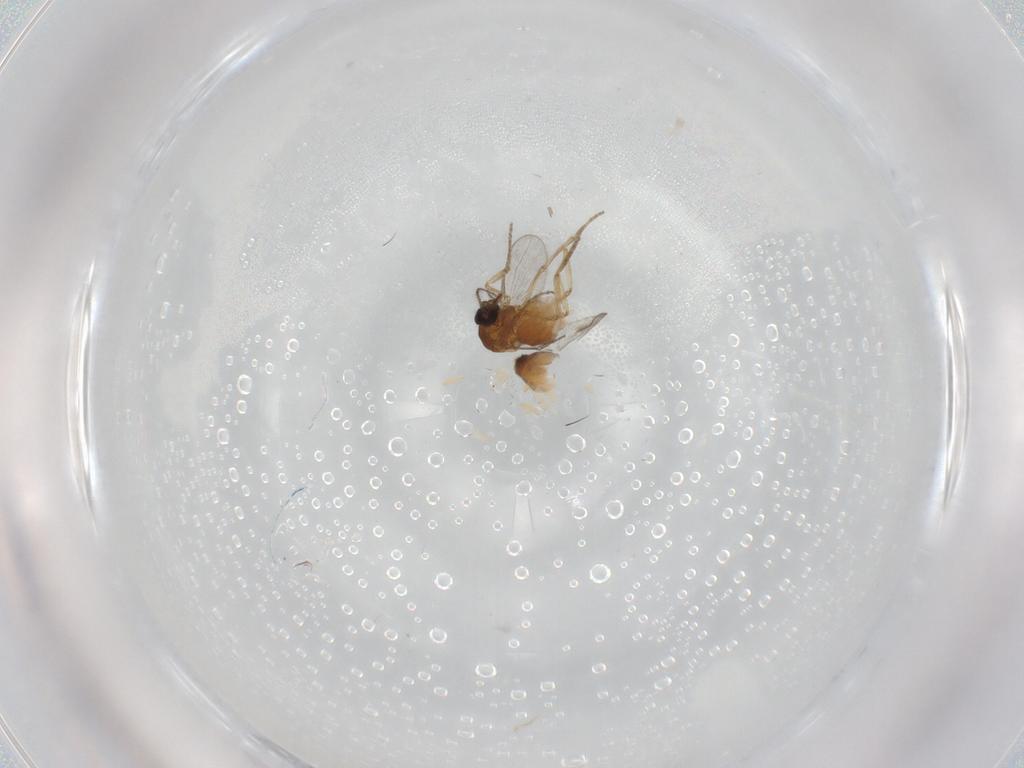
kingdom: Animalia
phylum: Arthropoda
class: Insecta
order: Diptera
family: Ceratopogonidae
